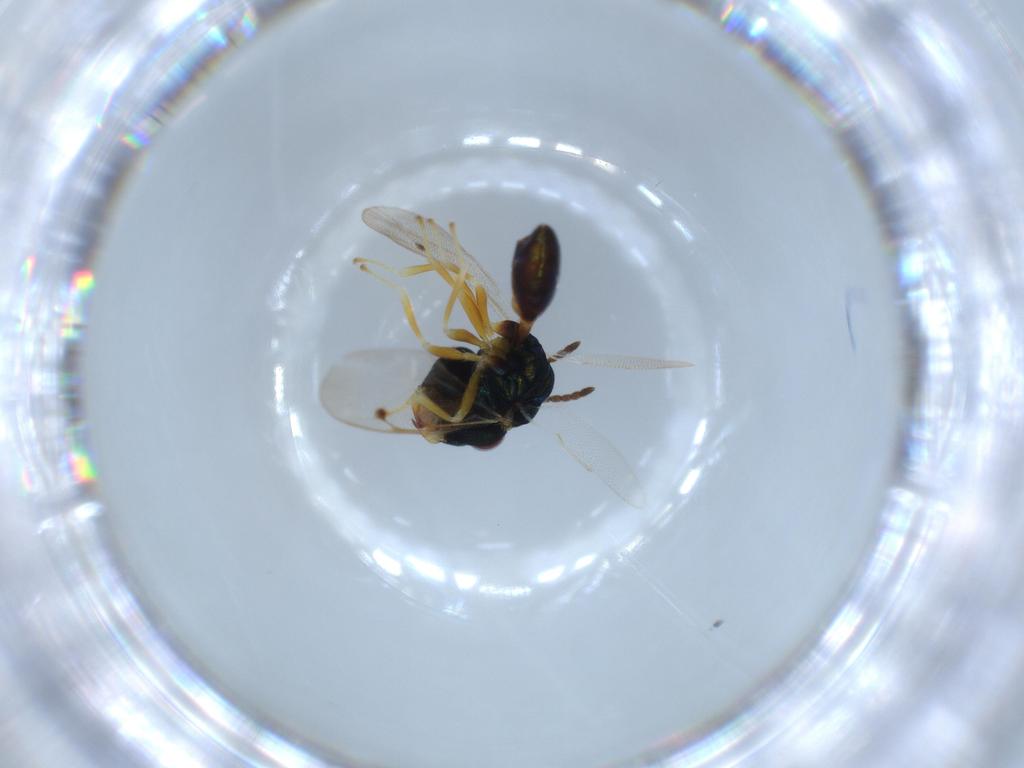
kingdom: Animalia
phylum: Arthropoda
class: Insecta
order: Hymenoptera
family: Pteromalidae
